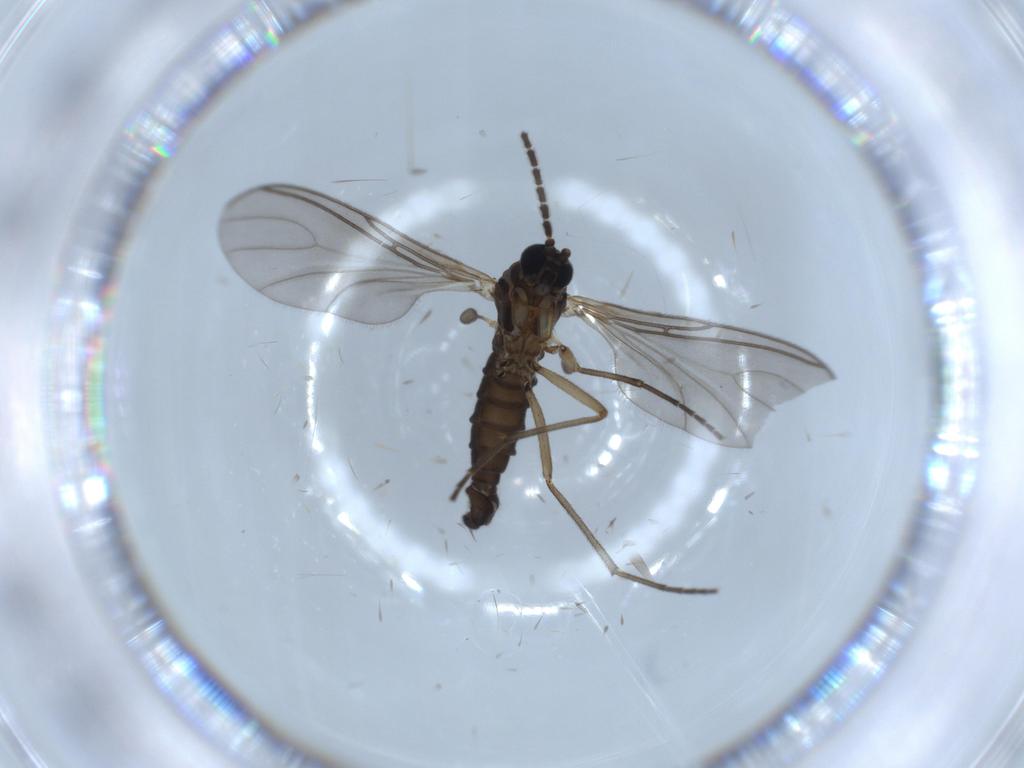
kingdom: Animalia
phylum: Arthropoda
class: Insecta
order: Diptera
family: Sciaridae
